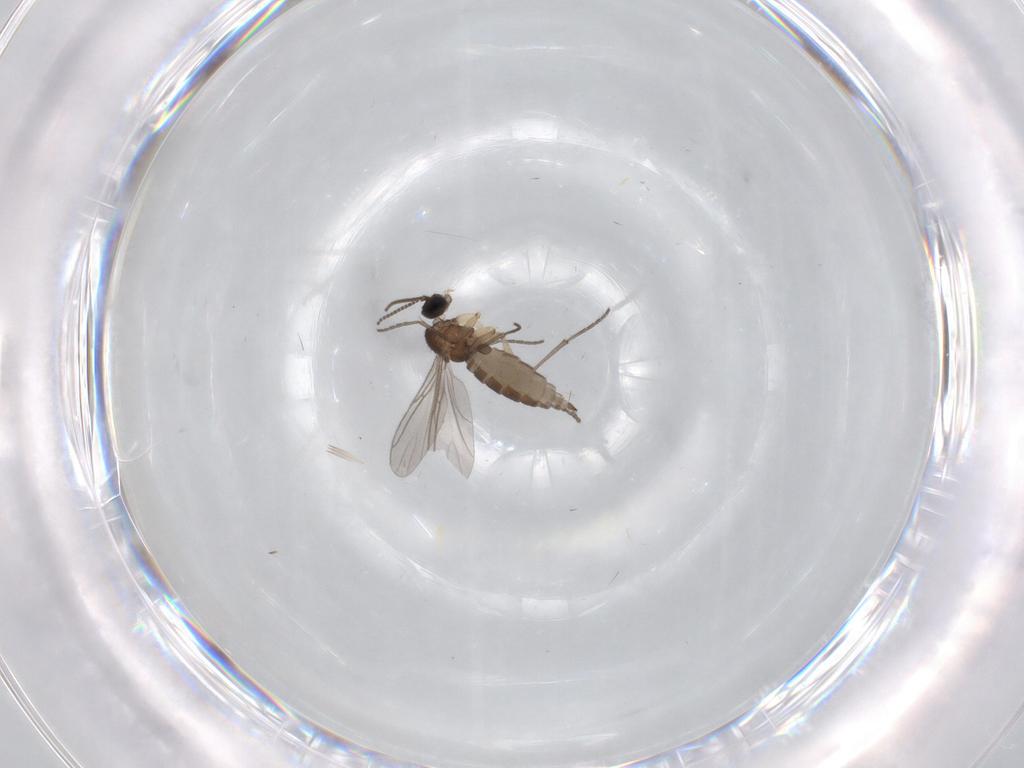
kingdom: Animalia
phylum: Arthropoda
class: Insecta
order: Diptera
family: Sciaridae
